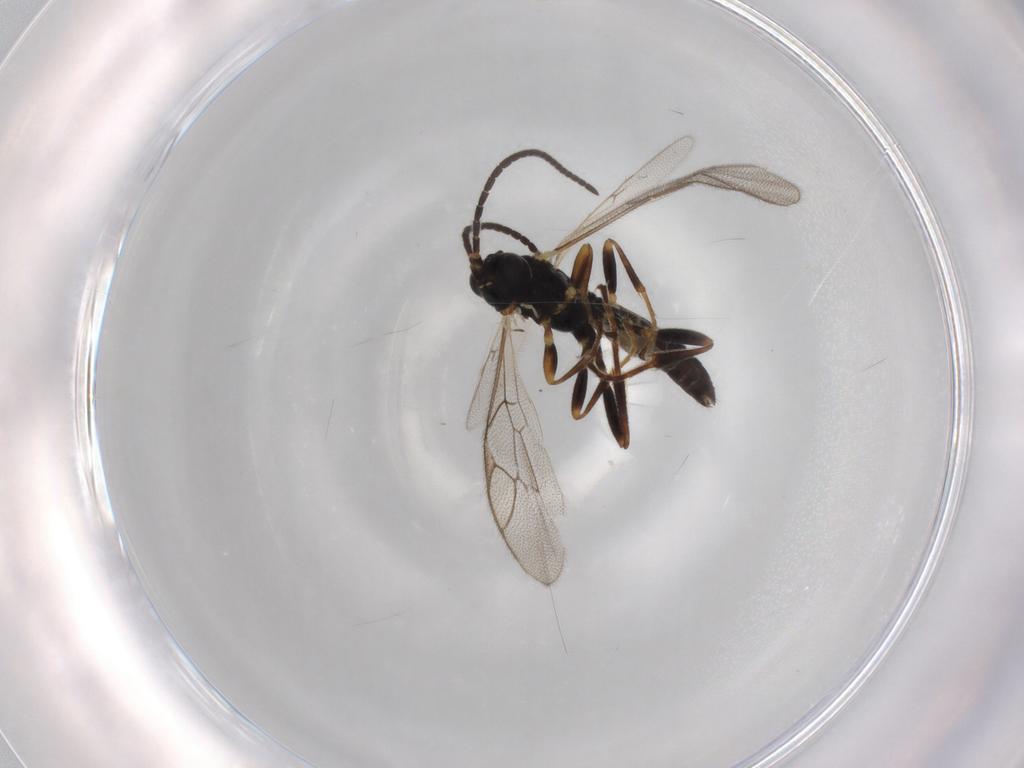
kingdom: Animalia
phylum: Arthropoda
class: Insecta
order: Hymenoptera
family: Ichneumonidae
